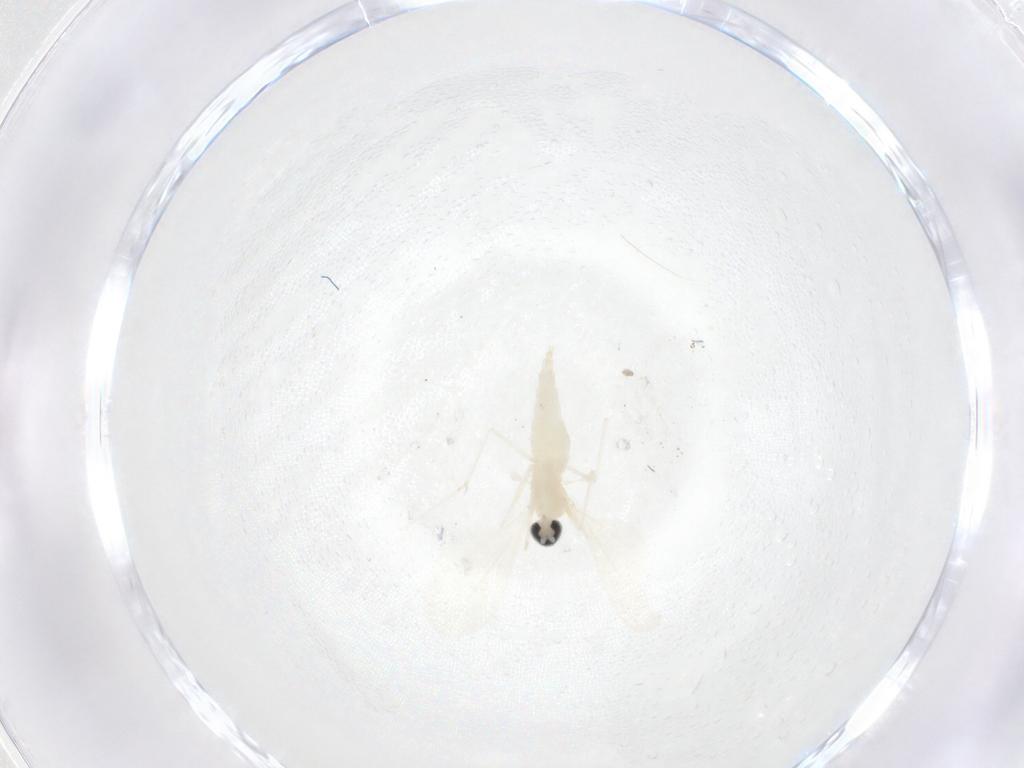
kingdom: Animalia
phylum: Arthropoda
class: Insecta
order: Diptera
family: Cecidomyiidae
